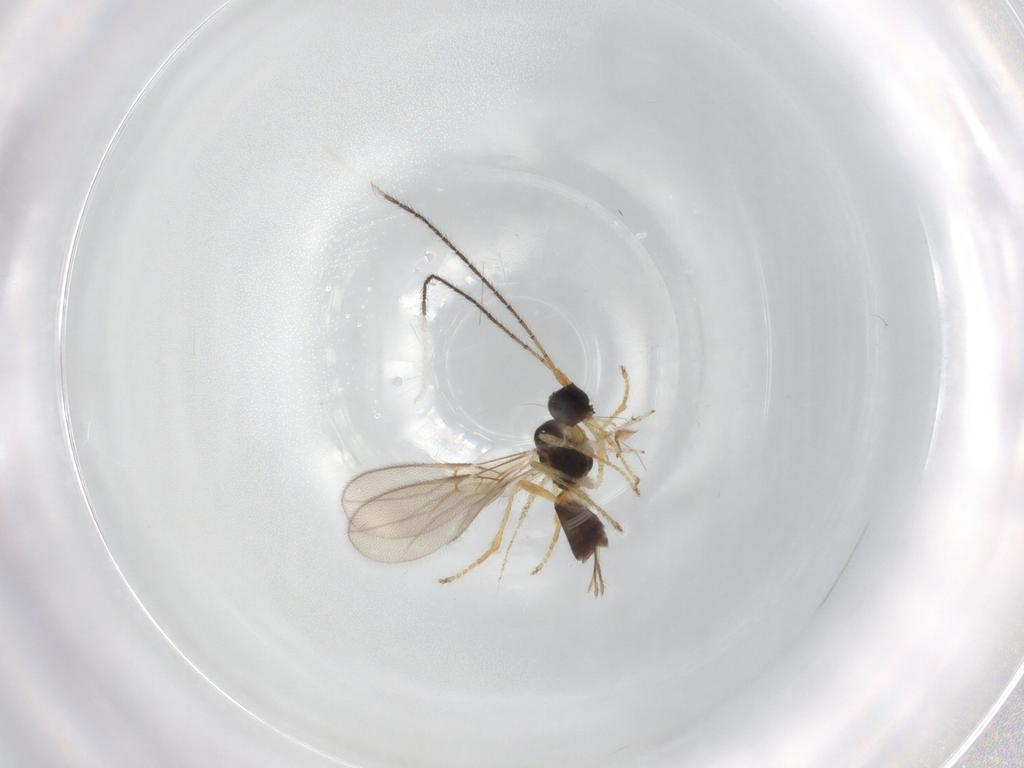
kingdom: Animalia
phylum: Arthropoda
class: Insecta
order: Hymenoptera
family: Braconidae
